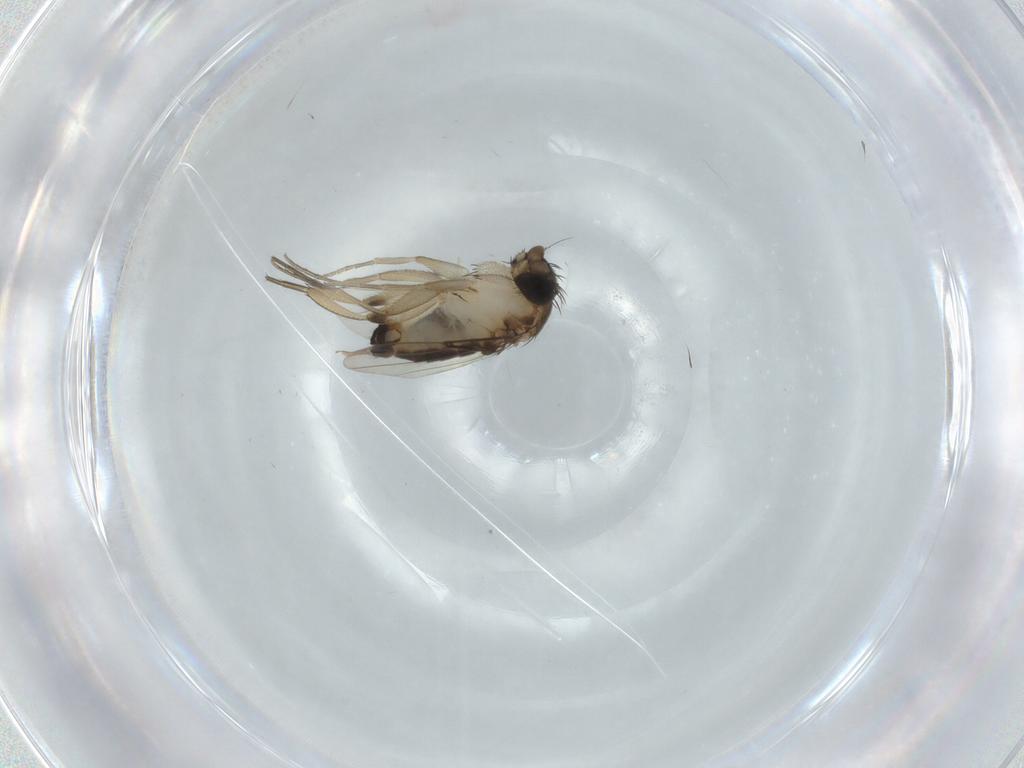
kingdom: Animalia
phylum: Arthropoda
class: Insecta
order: Diptera
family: Phoridae
